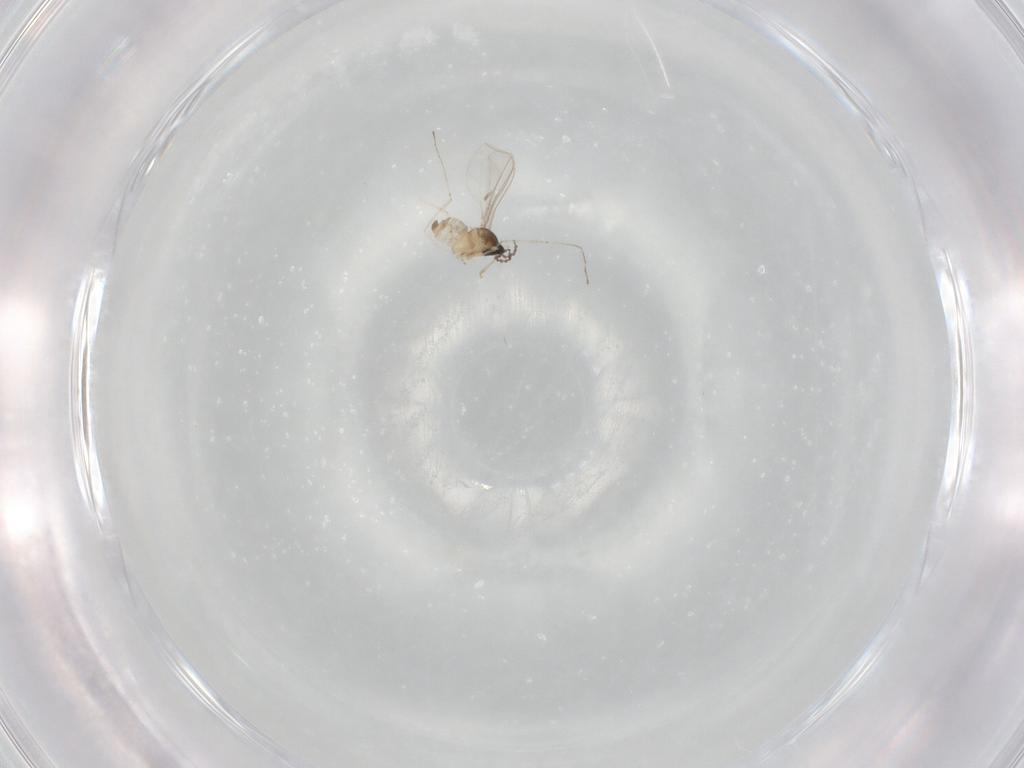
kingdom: Animalia
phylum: Arthropoda
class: Insecta
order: Diptera
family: Ceratopogonidae
